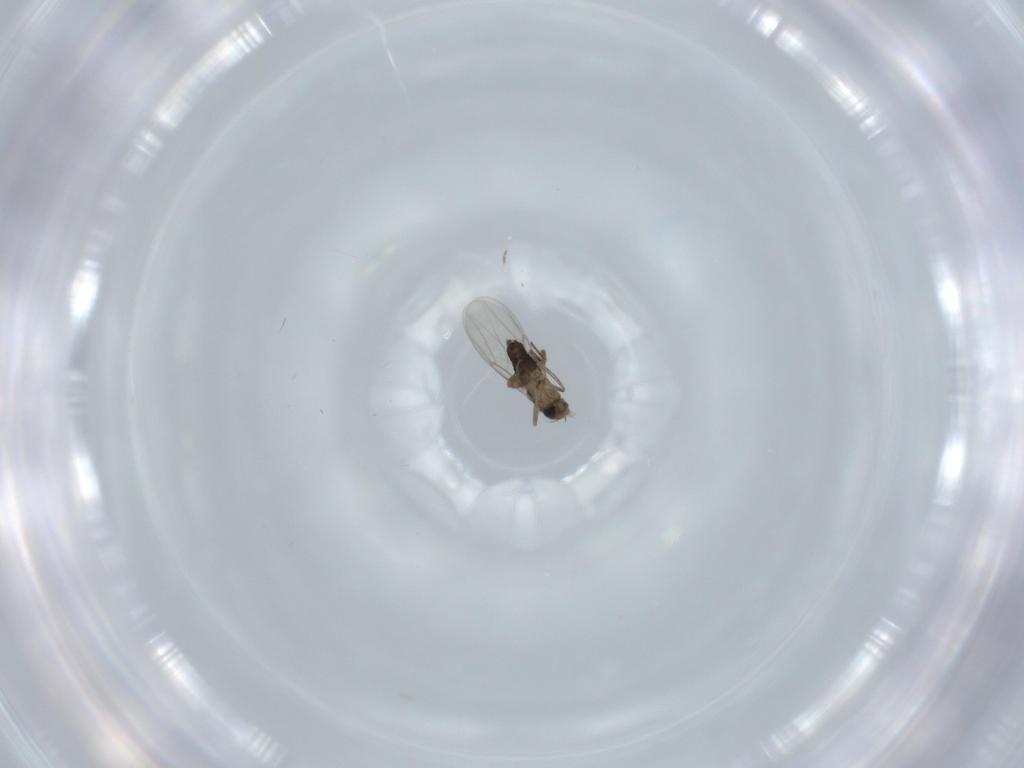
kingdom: Animalia
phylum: Arthropoda
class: Insecta
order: Diptera
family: Phoridae
